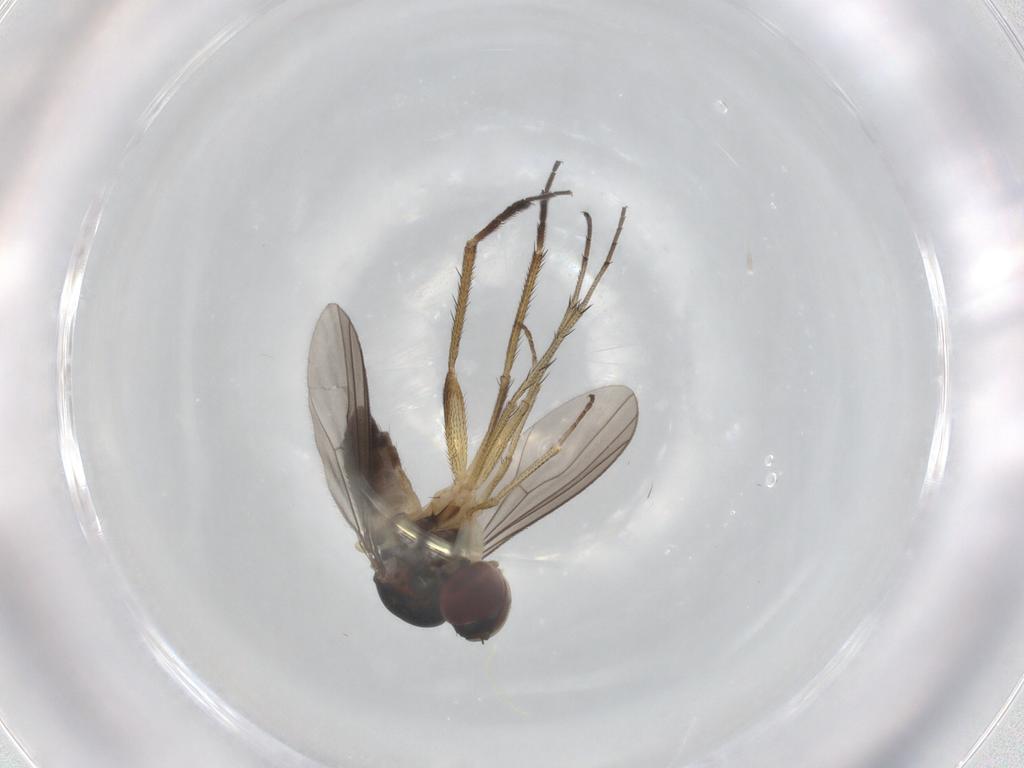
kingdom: Animalia
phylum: Arthropoda
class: Insecta
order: Diptera
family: Asilidae
